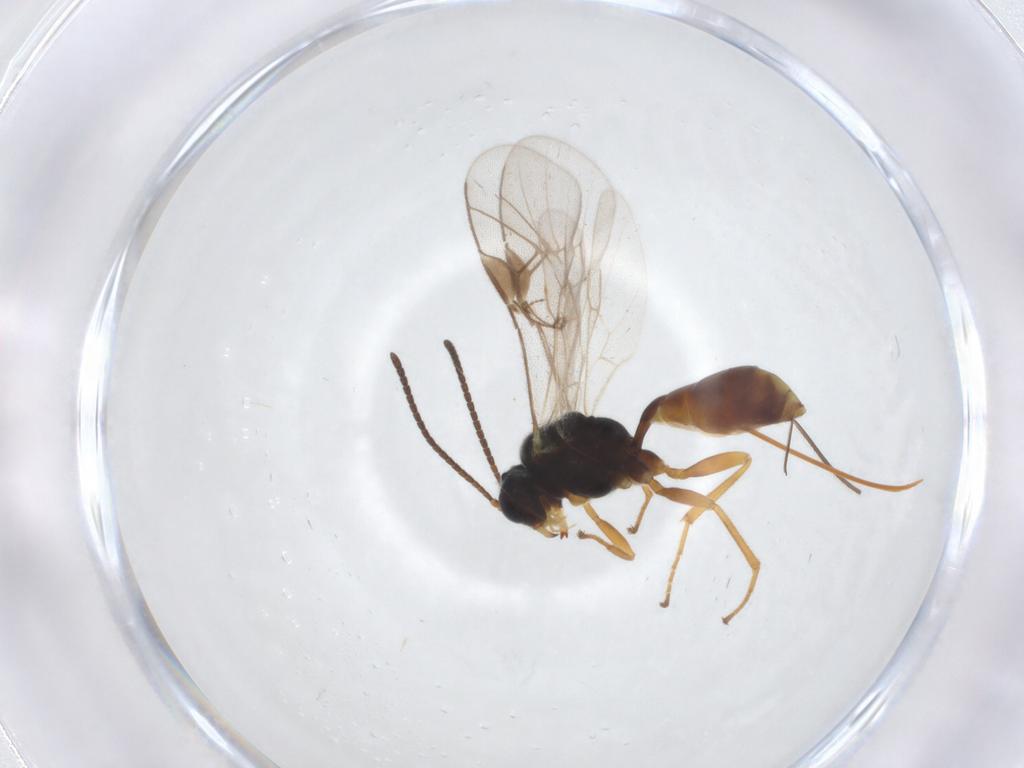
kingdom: Animalia
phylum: Arthropoda
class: Insecta
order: Hymenoptera
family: Ichneumonidae
